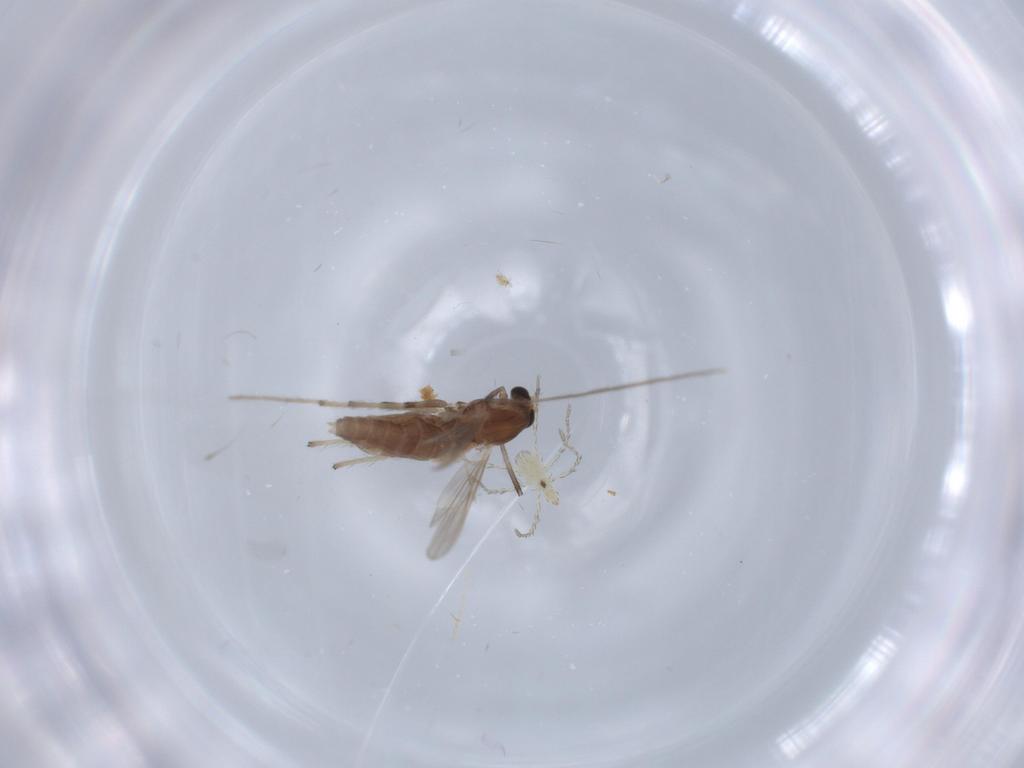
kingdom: Animalia
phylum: Arthropoda
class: Insecta
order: Diptera
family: Chironomidae
